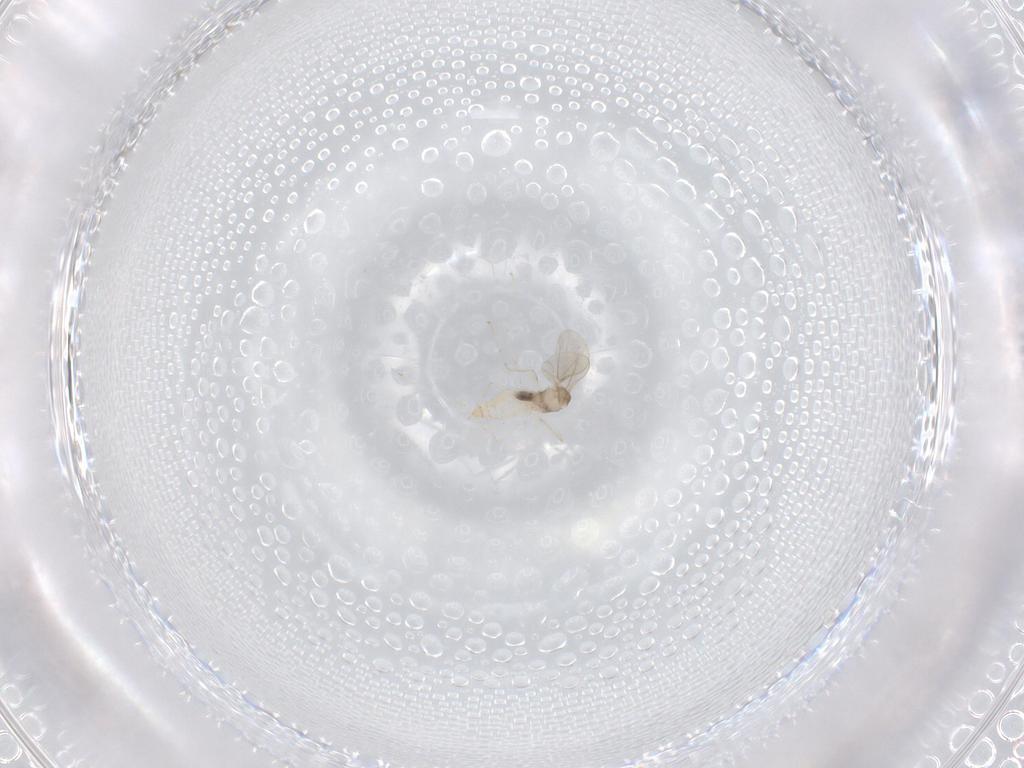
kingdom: Animalia
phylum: Arthropoda
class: Insecta
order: Diptera
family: Cecidomyiidae
